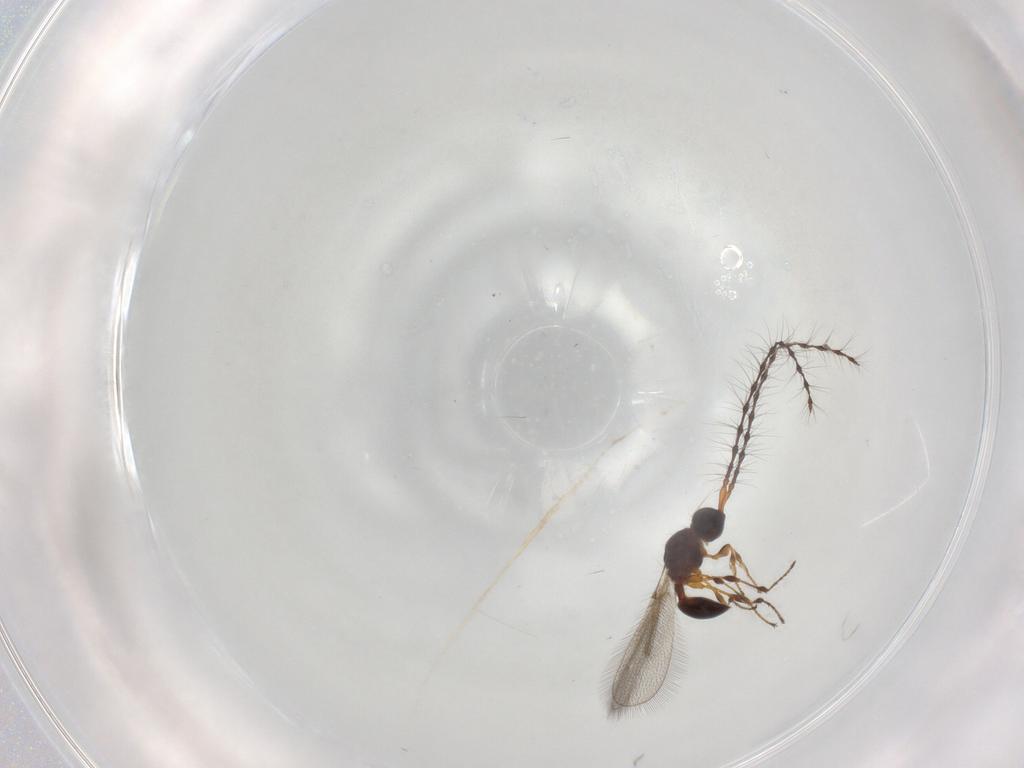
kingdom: Animalia
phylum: Arthropoda
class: Insecta
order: Hymenoptera
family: Diapriidae
